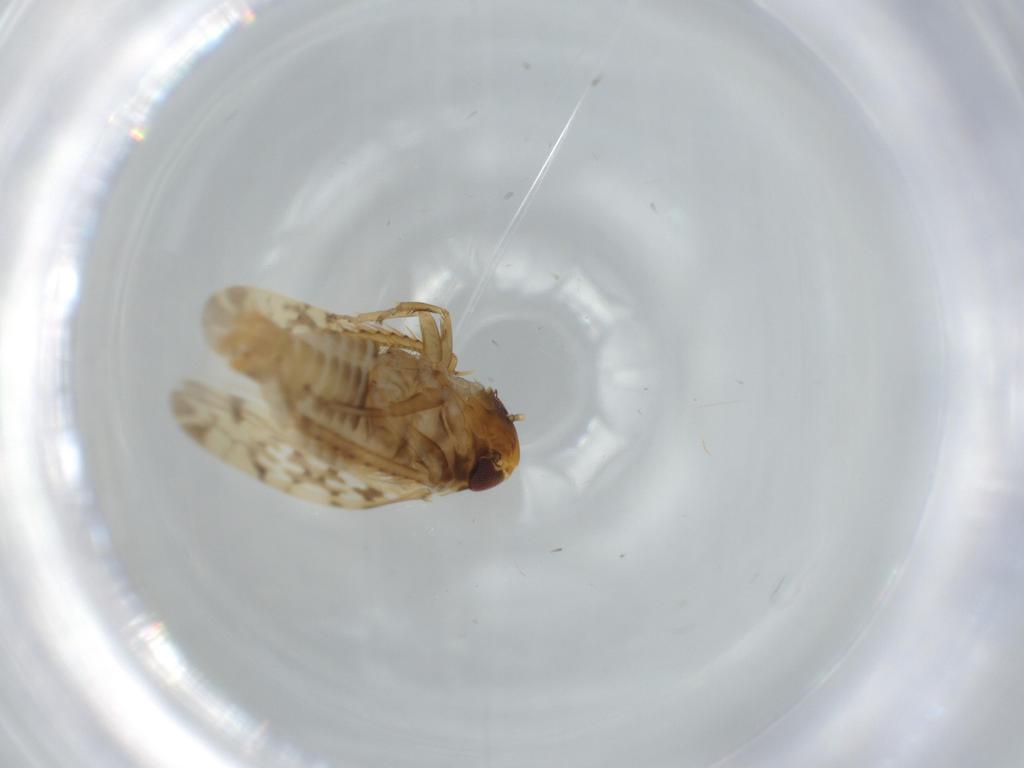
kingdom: Animalia
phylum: Arthropoda
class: Insecta
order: Hemiptera
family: Cicadellidae
